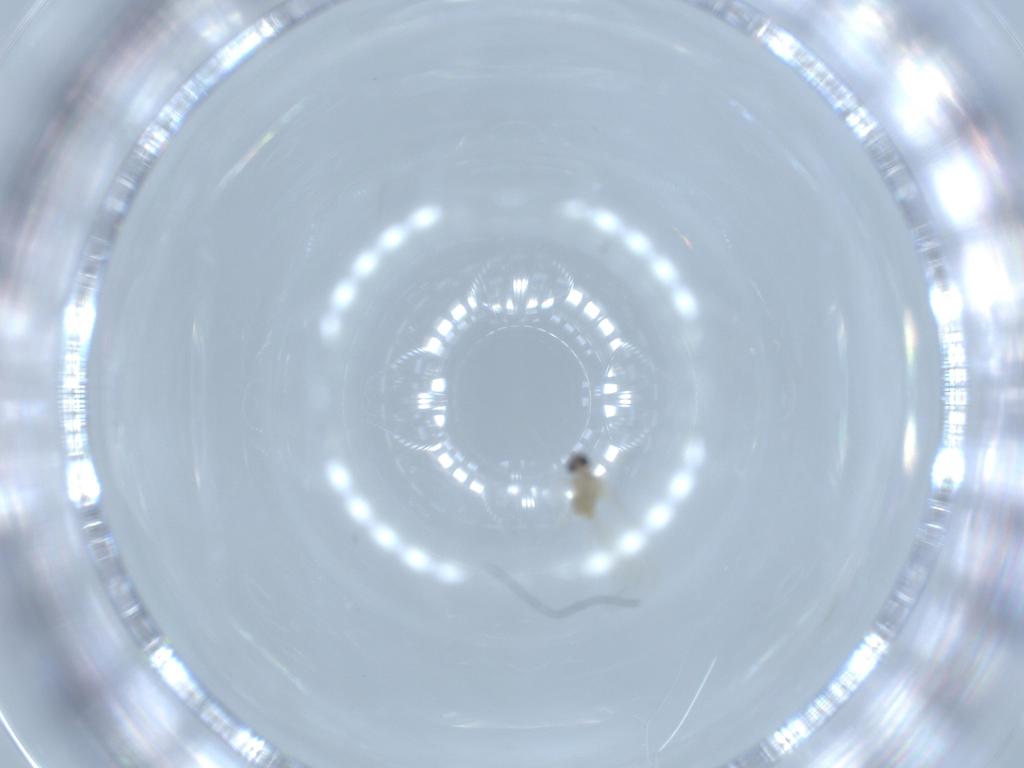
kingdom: Animalia
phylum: Arthropoda
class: Insecta
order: Diptera
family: Cecidomyiidae
